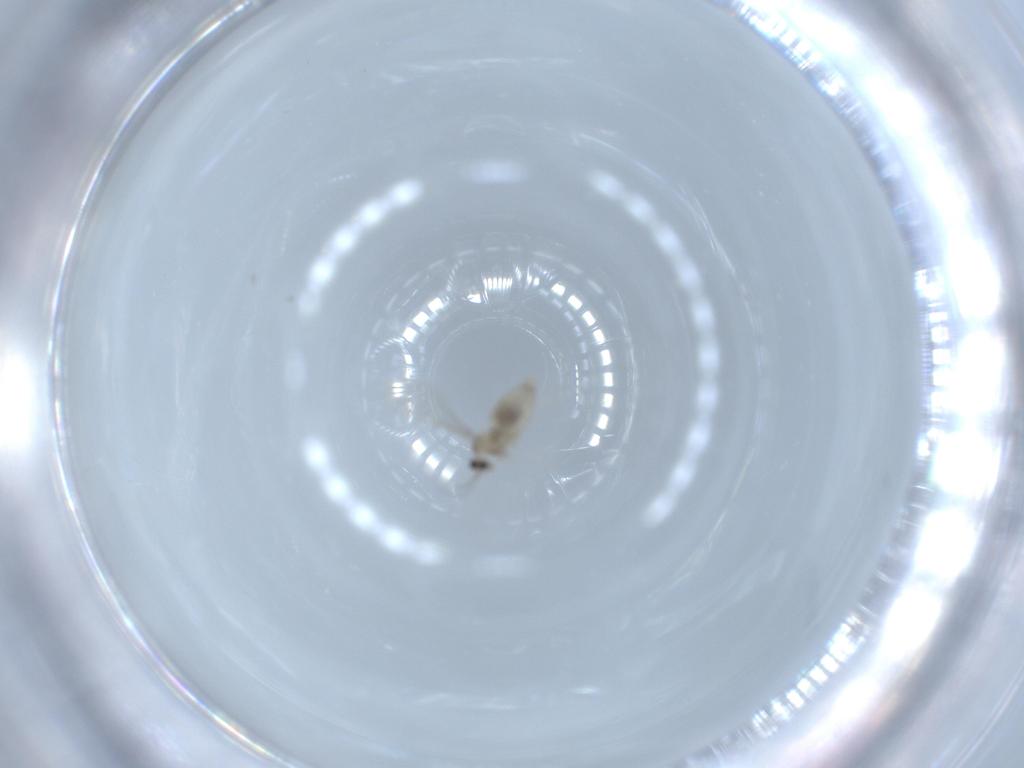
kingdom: Animalia
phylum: Arthropoda
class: Insecta
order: Diptera
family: Cecidomyiidae
